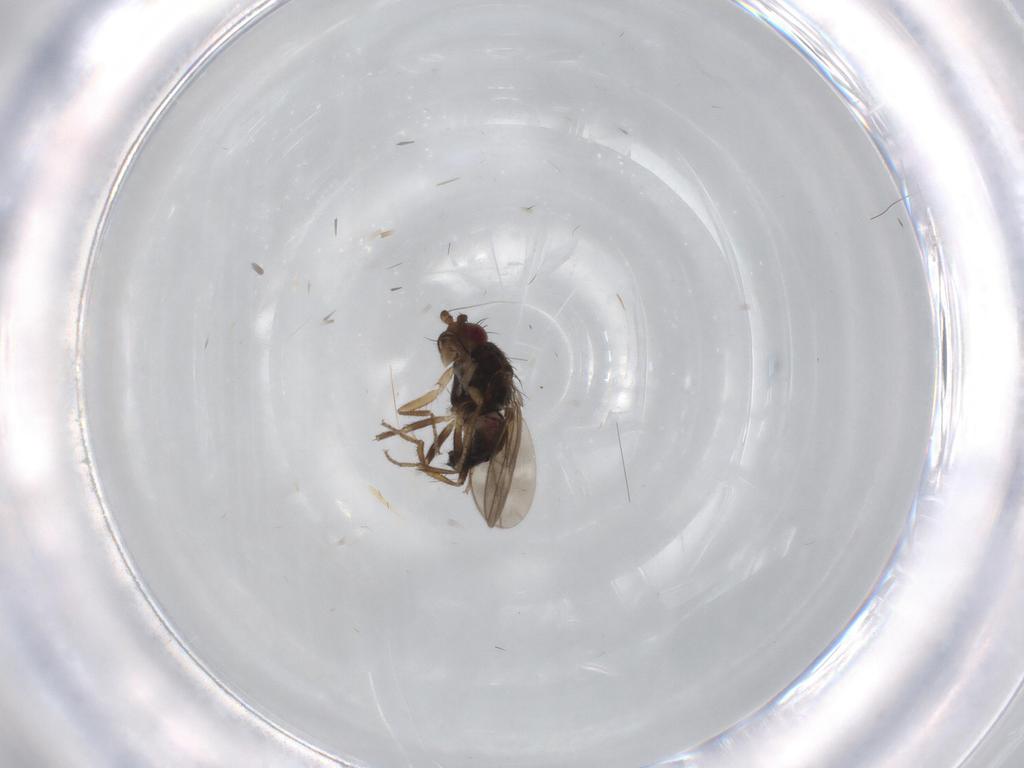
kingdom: Animalia
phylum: Arthropoda
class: Insecta
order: Diptera
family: Sphaeroceridae
